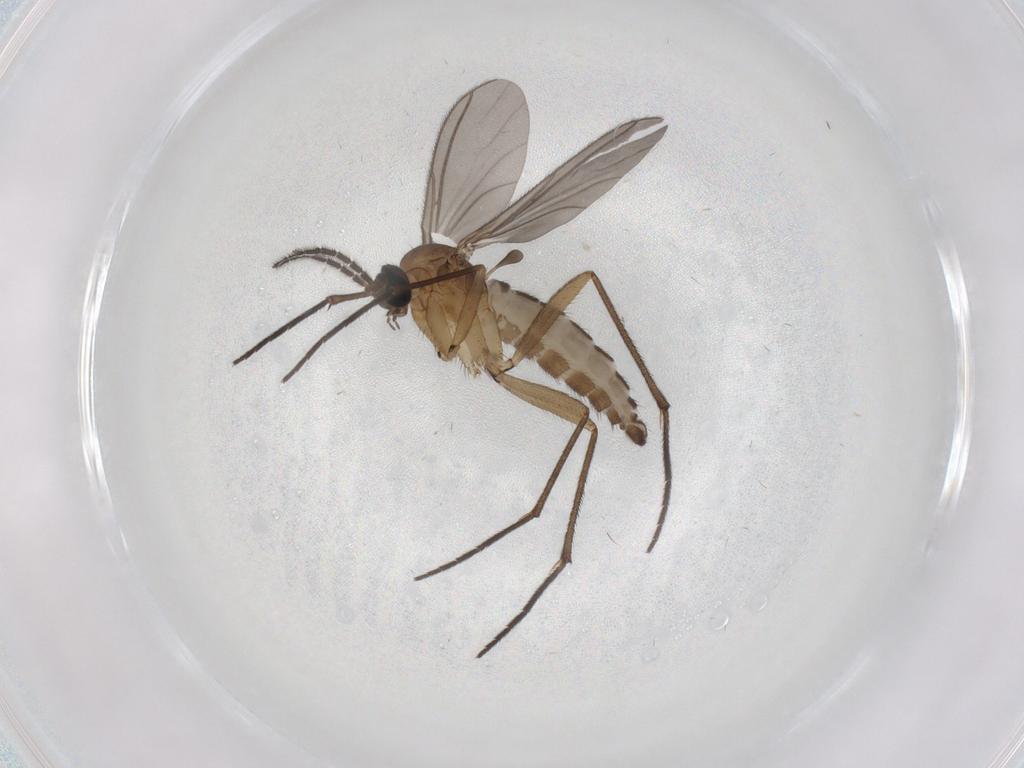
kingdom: Animalia
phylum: Arthropoda
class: Insecta
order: Diptera
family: Sciaridae
